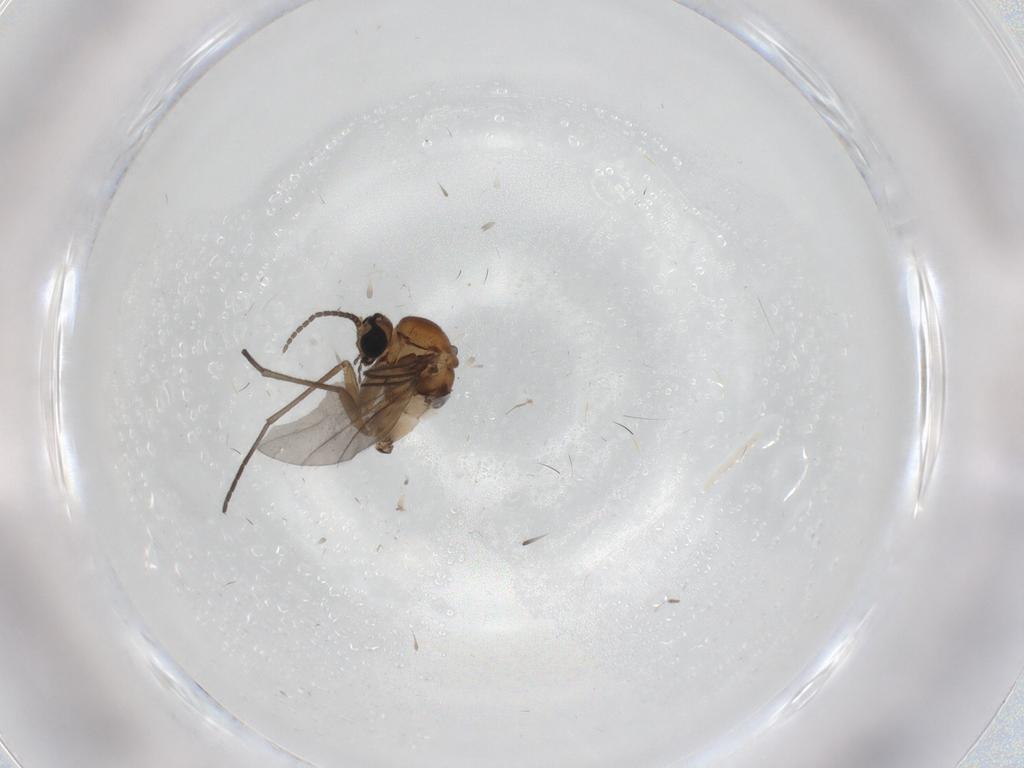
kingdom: Animalia
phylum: Arthropoda
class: Insecta
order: Diptera
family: Sciaridae
